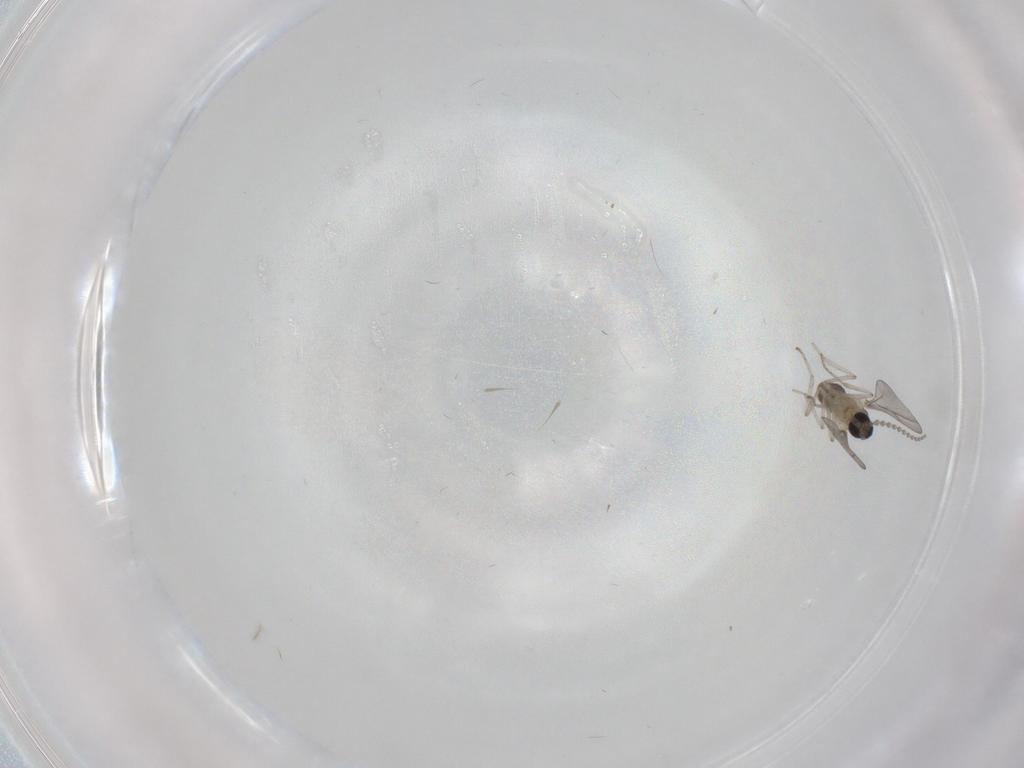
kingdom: Animalia
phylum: Arthropoda
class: Insecta
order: Diptera
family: Cecidomyiidae
